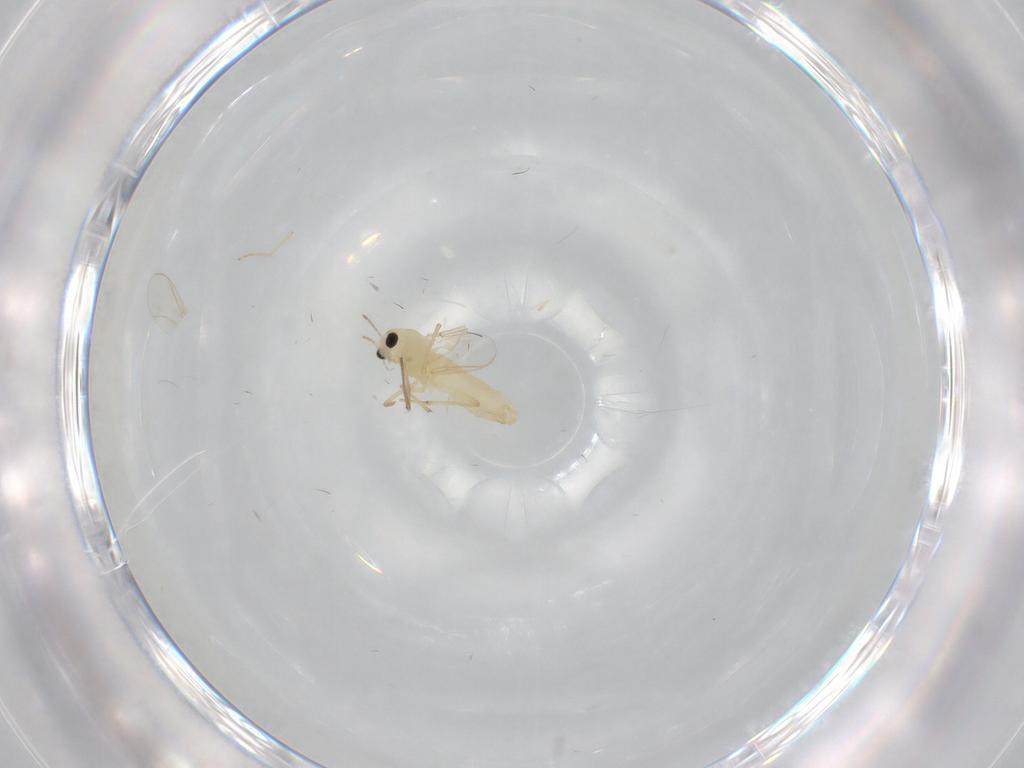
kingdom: Animalia
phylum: Arthropoda
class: Insecta
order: Diptera
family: Chironomidae
